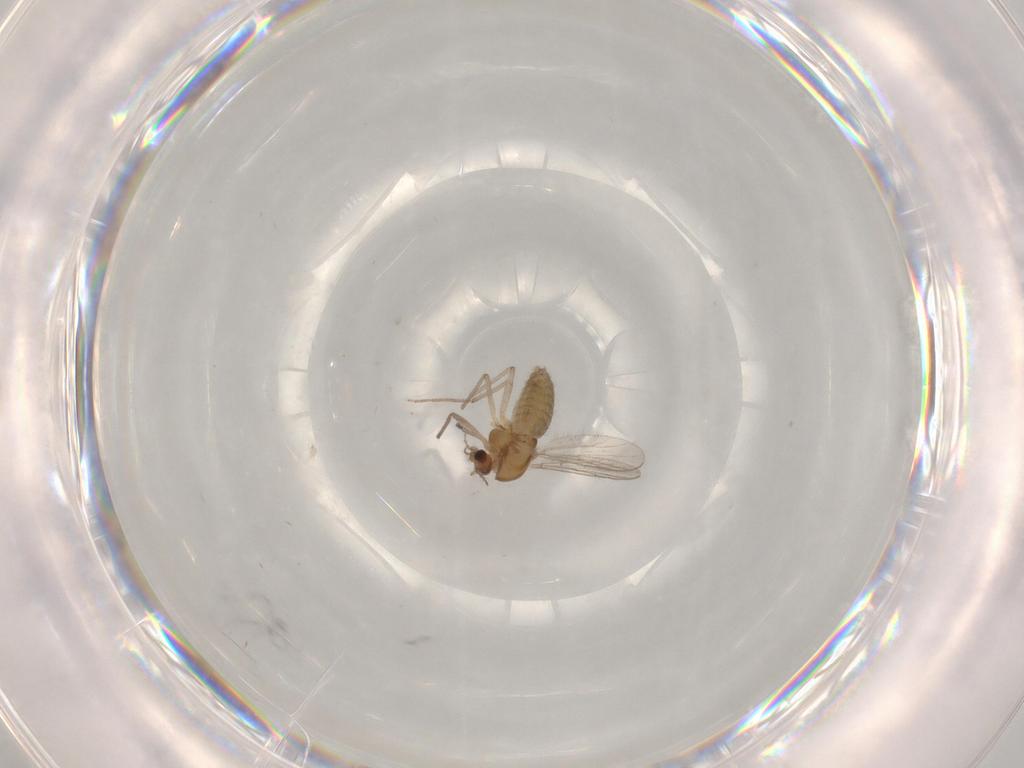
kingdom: Animalia
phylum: Arthropoda
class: Insecta
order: Diptera
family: Chironomidae
